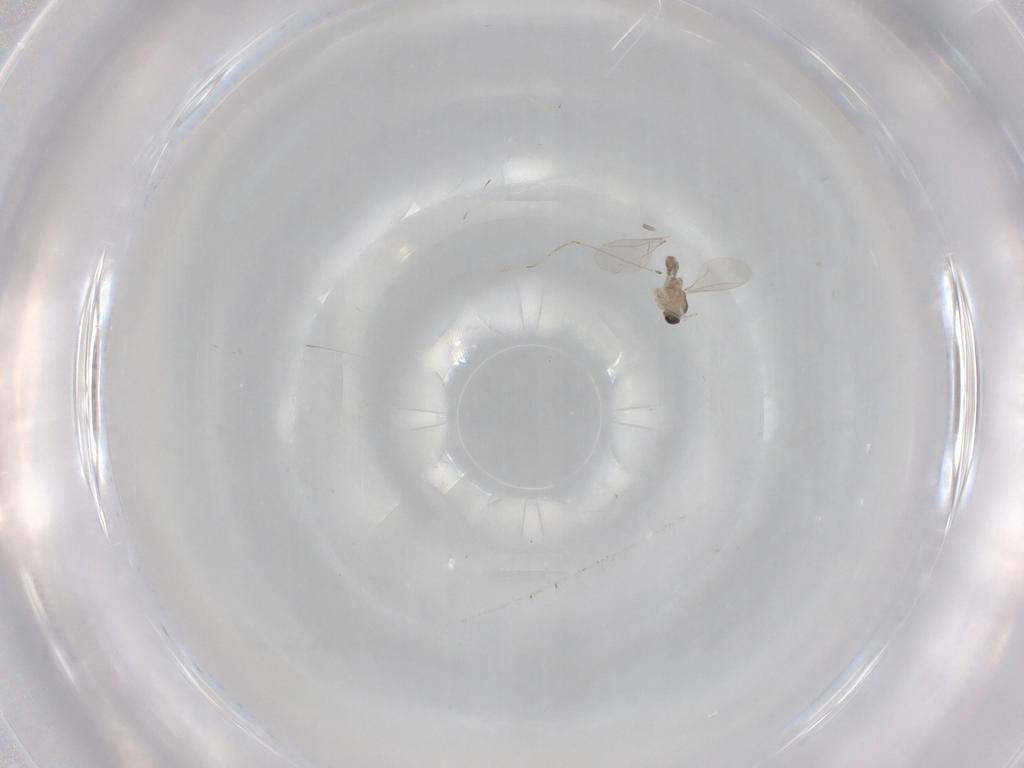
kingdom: Animalia
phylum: Arthropoda
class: Insecta
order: Diptera
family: Cecidomyiidae
